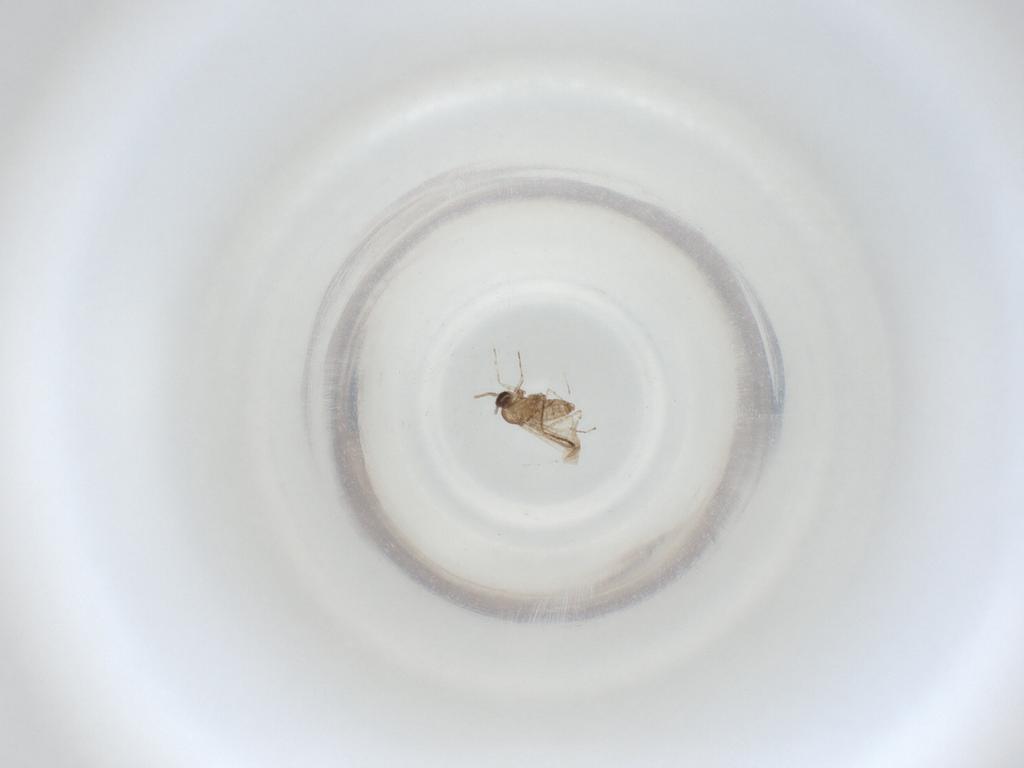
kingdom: Animalia
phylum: Arthropoda
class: Insecta
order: Diptera
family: Cecidomyiidae
